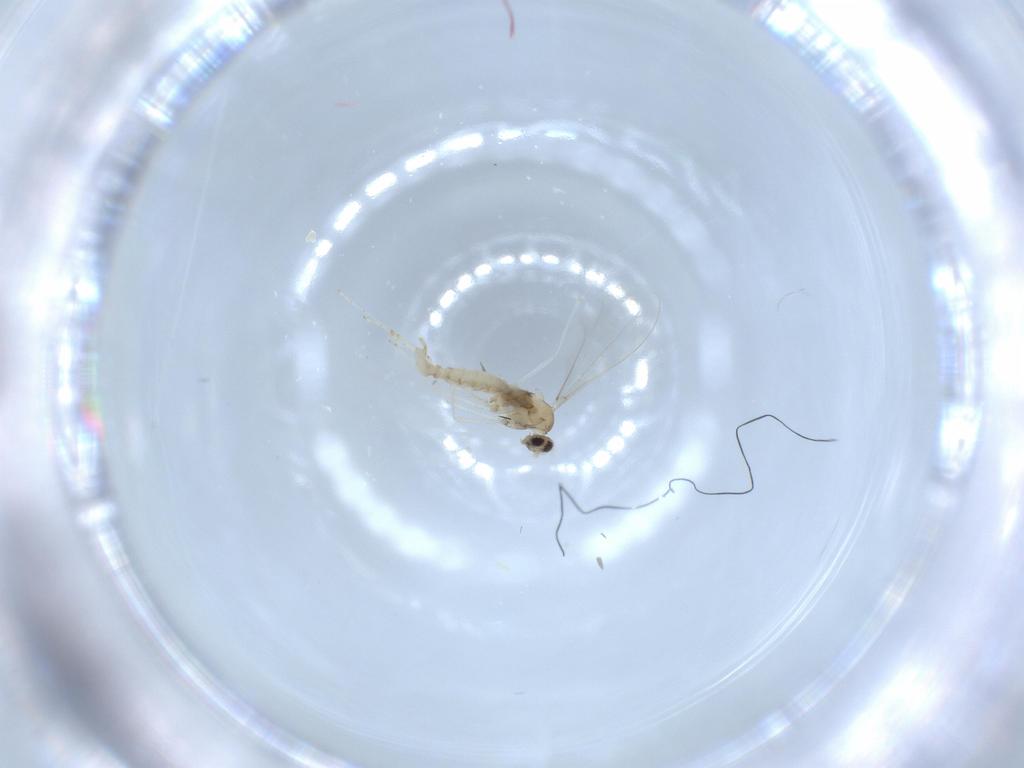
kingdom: Animalia
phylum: Arthropoda
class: Insecta
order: Diptera
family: Cecidomyiidae
